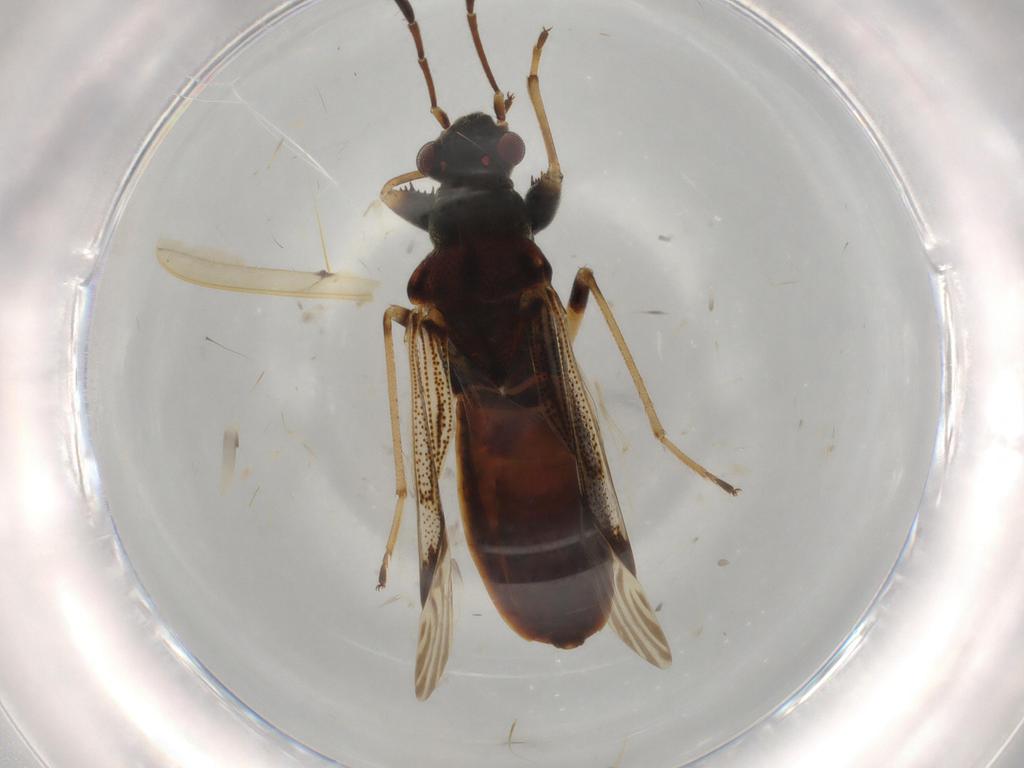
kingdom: Animalia
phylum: Arthropoda
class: Insecta
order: Hemiptera
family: Rhyparochromidae
